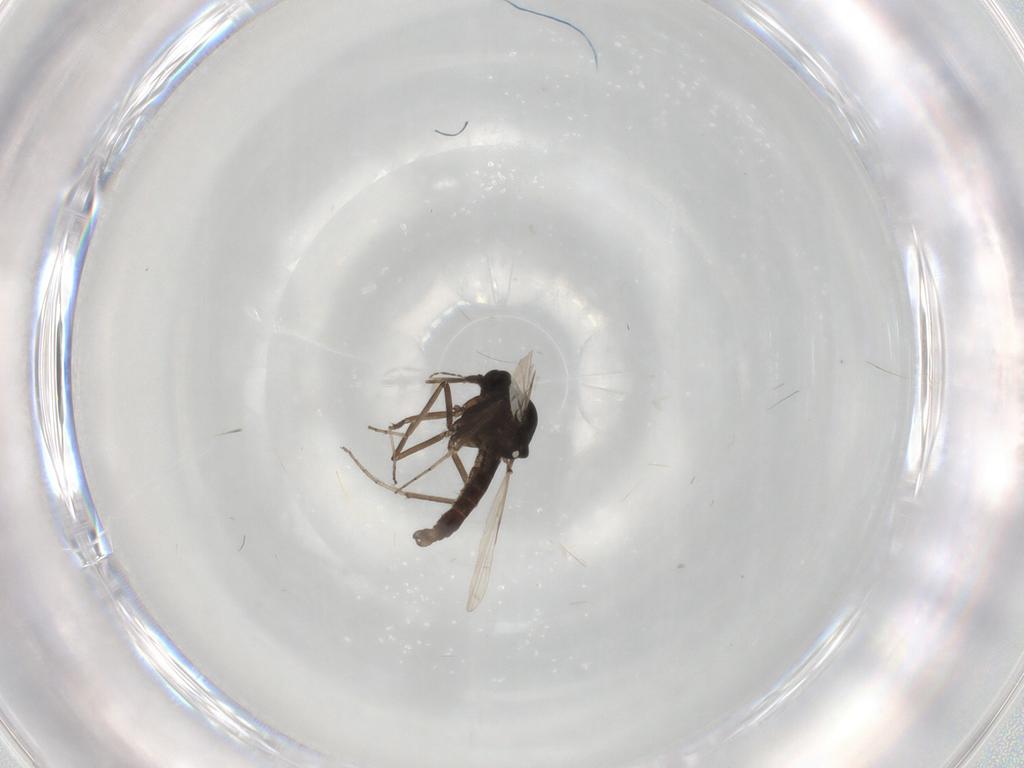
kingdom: Animalia
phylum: Arthropoda
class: Insecta
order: Diptera
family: Ceratopogonidae
